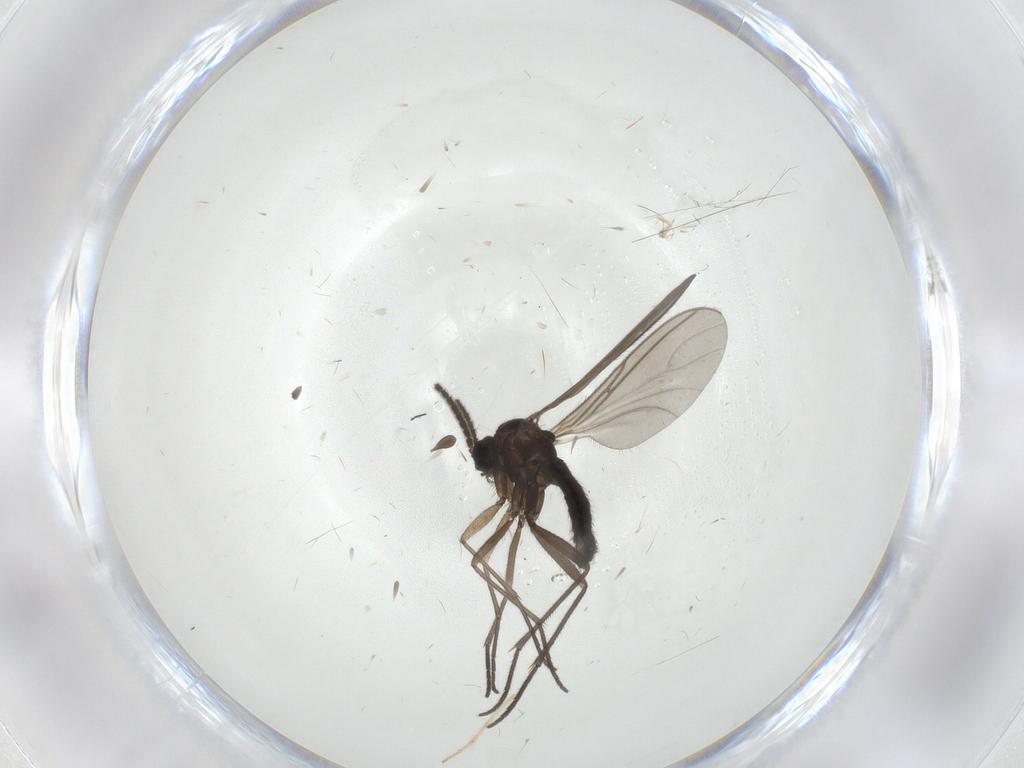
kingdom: Animalia
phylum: Arthropoda
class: Insecta
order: Diptera
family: Sciaridae
